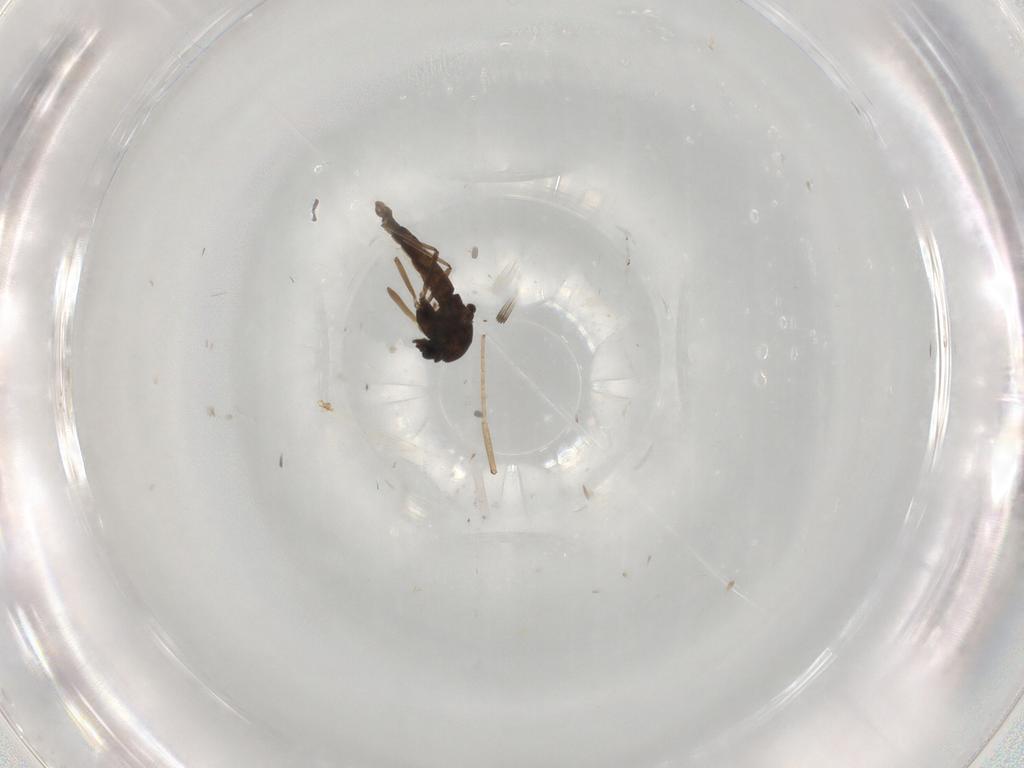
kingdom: Animalia
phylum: Arthropoda
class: Insecta
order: Diptera
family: Chironomidae
